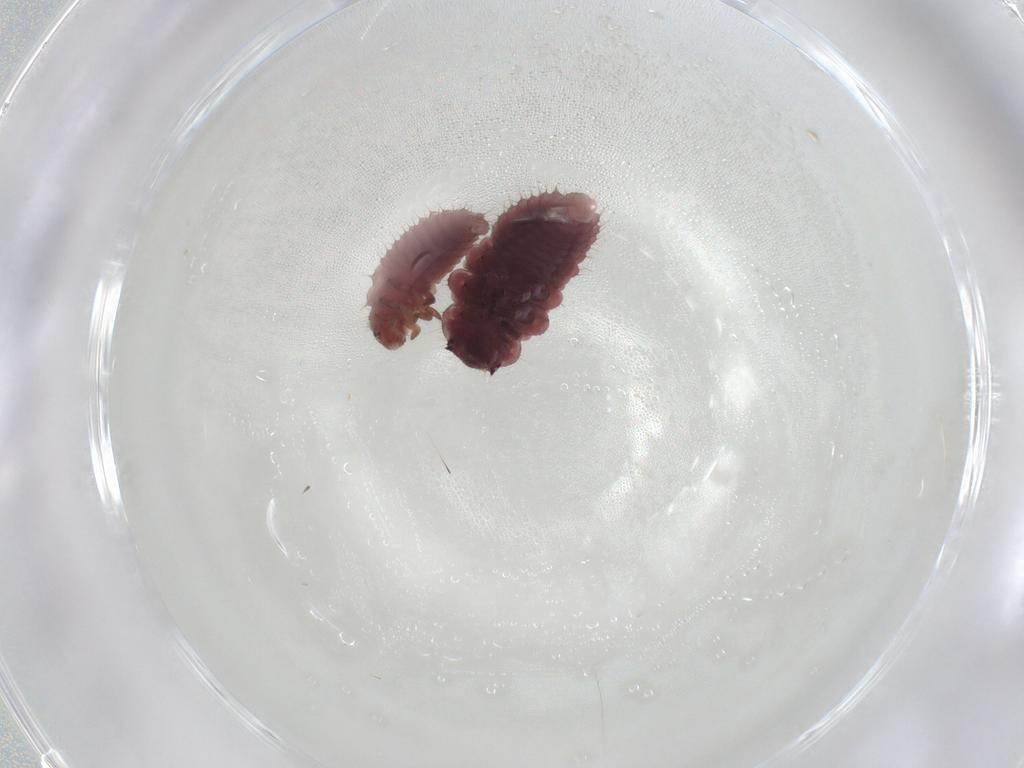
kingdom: Animalia
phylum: Arthropoda
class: Insecta
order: Coleoptera
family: Coccinellidae
